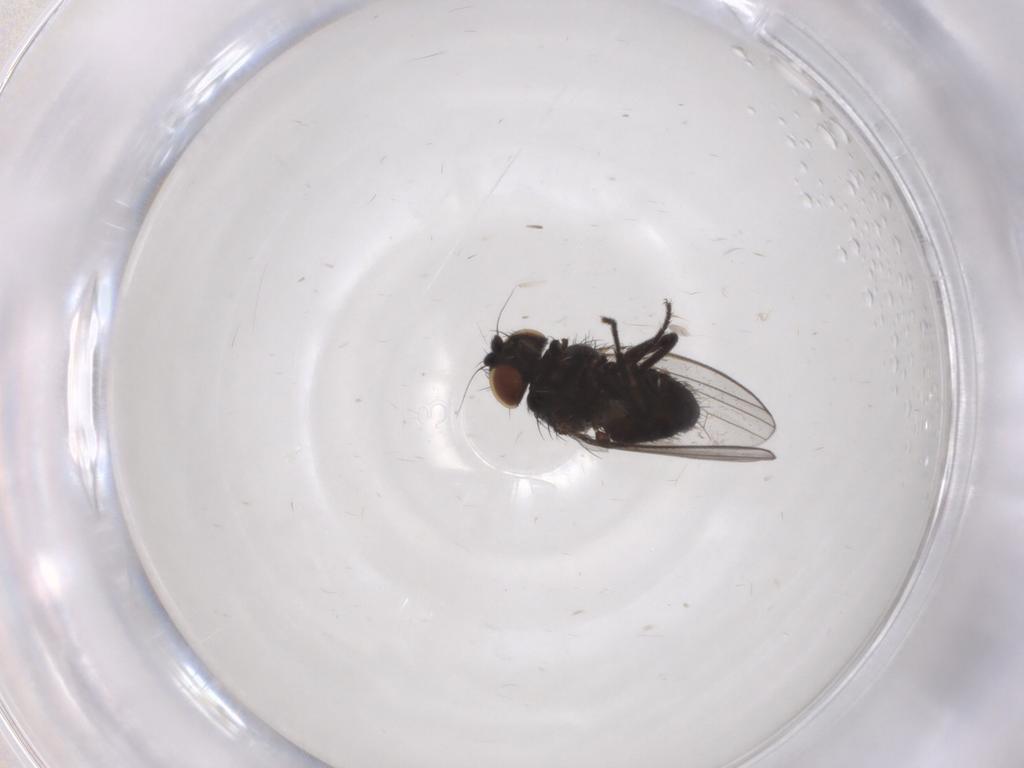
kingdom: Animalia
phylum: Arthropoda
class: Insecta
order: Diptera
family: Milichiidae
